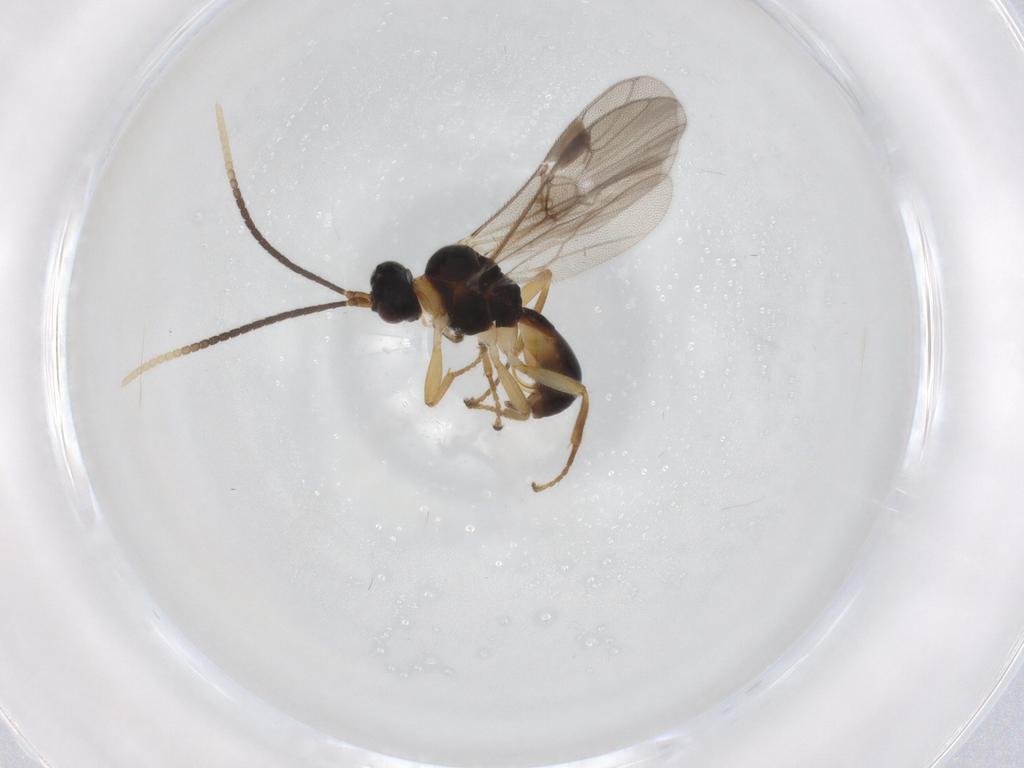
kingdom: Animalia
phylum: Arthropoda
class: Insecta
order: Hymenoptera
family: Braconidae
